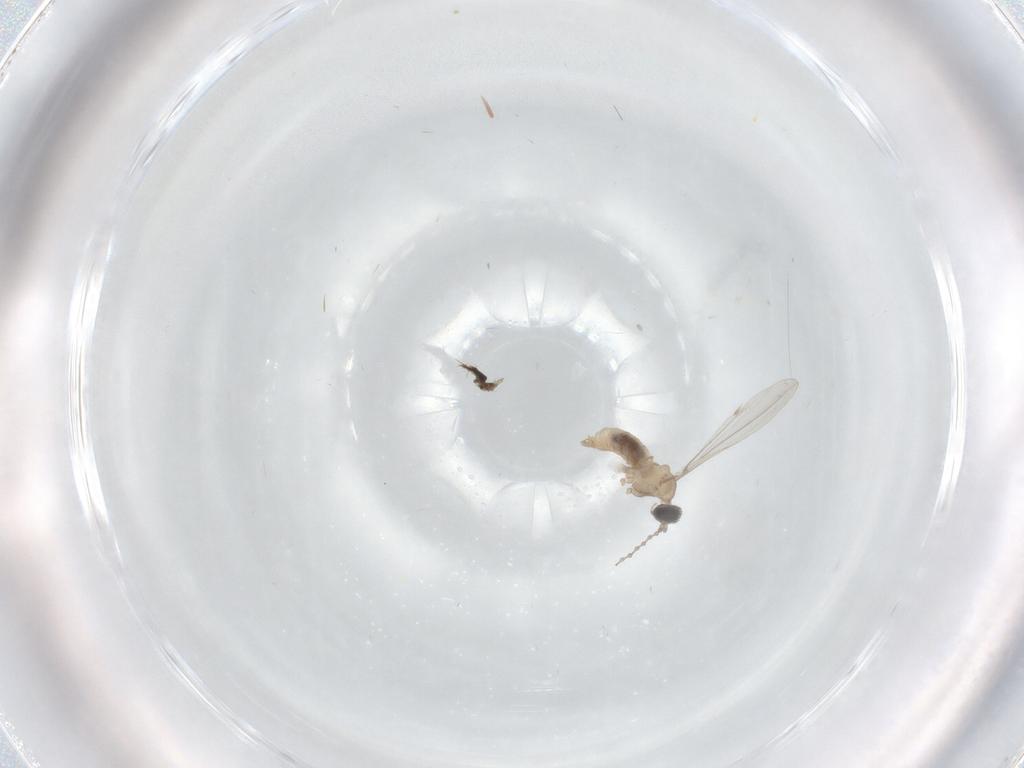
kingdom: Animalia
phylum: Arthropoda
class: Insecta
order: Diptera
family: Cecidomyiidae
